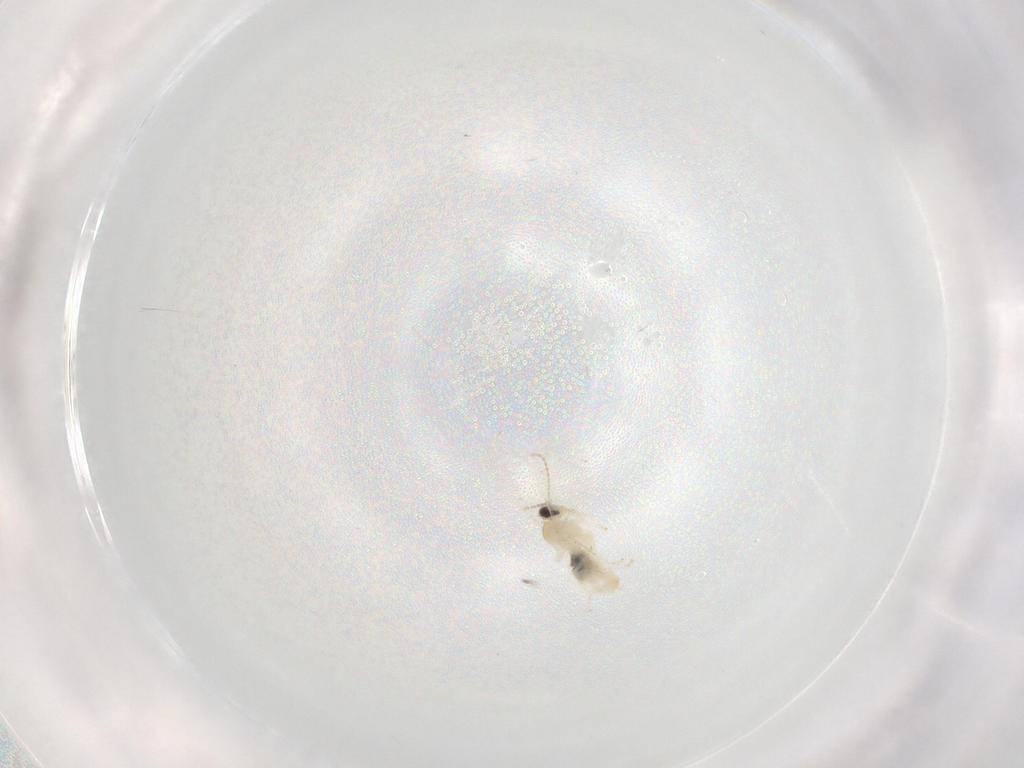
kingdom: Animalia
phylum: Arthropoda
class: Insecta
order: Diptera
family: Cecidomyiidae
